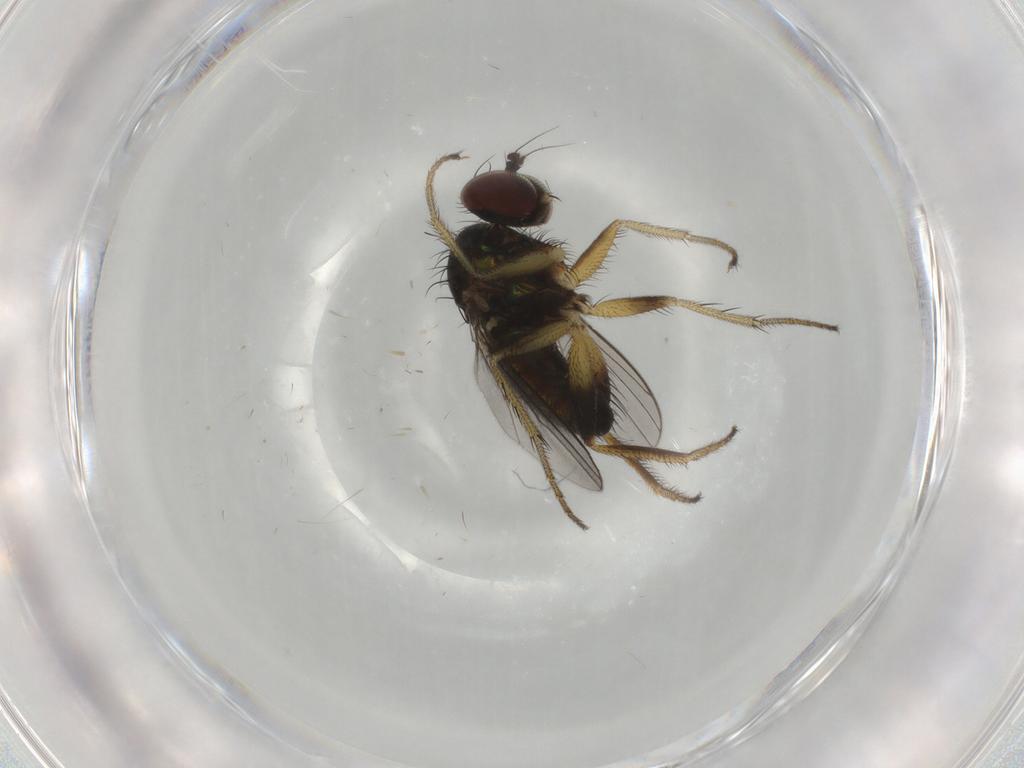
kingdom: Animalia
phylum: Arthropoda
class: Insecta
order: Diptera
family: Dolichopodidae
